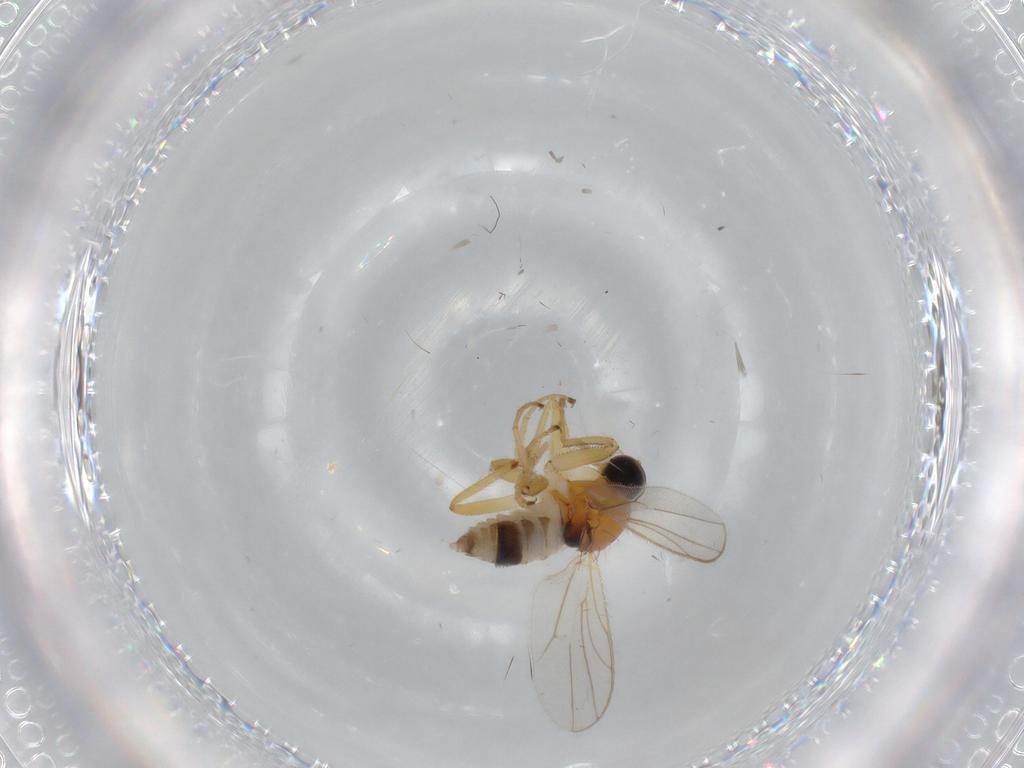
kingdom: Animalia
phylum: Arthropoda
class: Insecta
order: Diptera
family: Hybotidae
